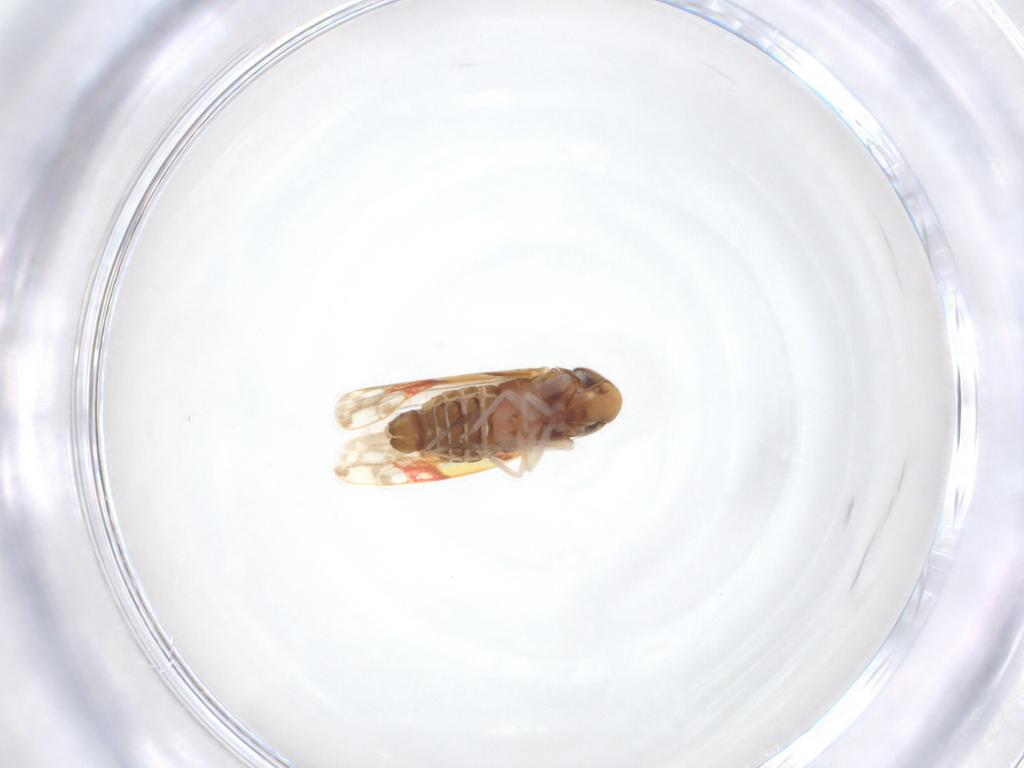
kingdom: Animalia
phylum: Arthropoda
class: Insecta
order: Hemiptera
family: Cicadellidae
